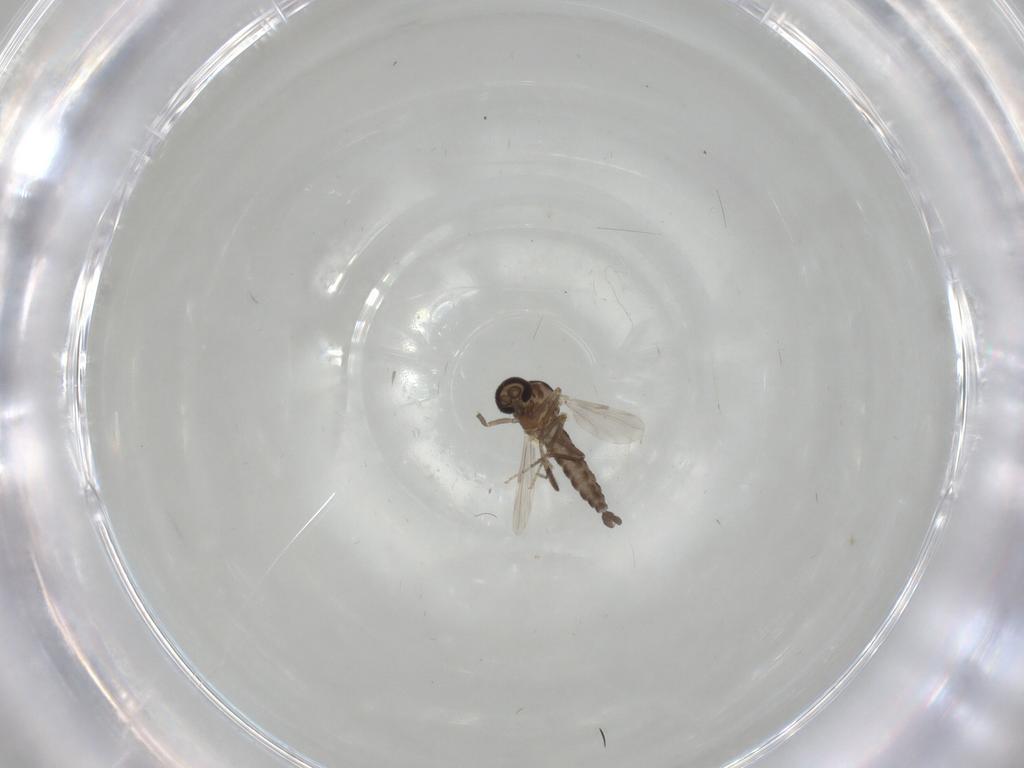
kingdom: Animalia
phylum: Arthropoda
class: Insecta
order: Diptera
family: Ceratopogonidae
